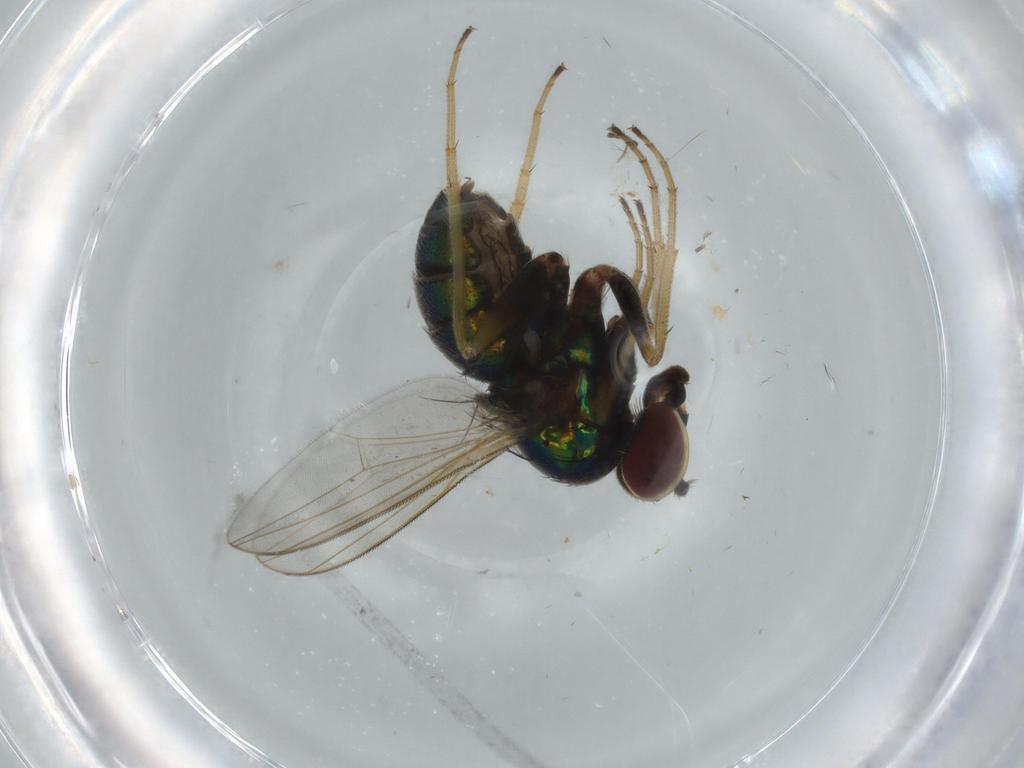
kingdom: Animalia
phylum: Arthropoda
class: Insecta
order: Diptera
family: Dolichopodidae
